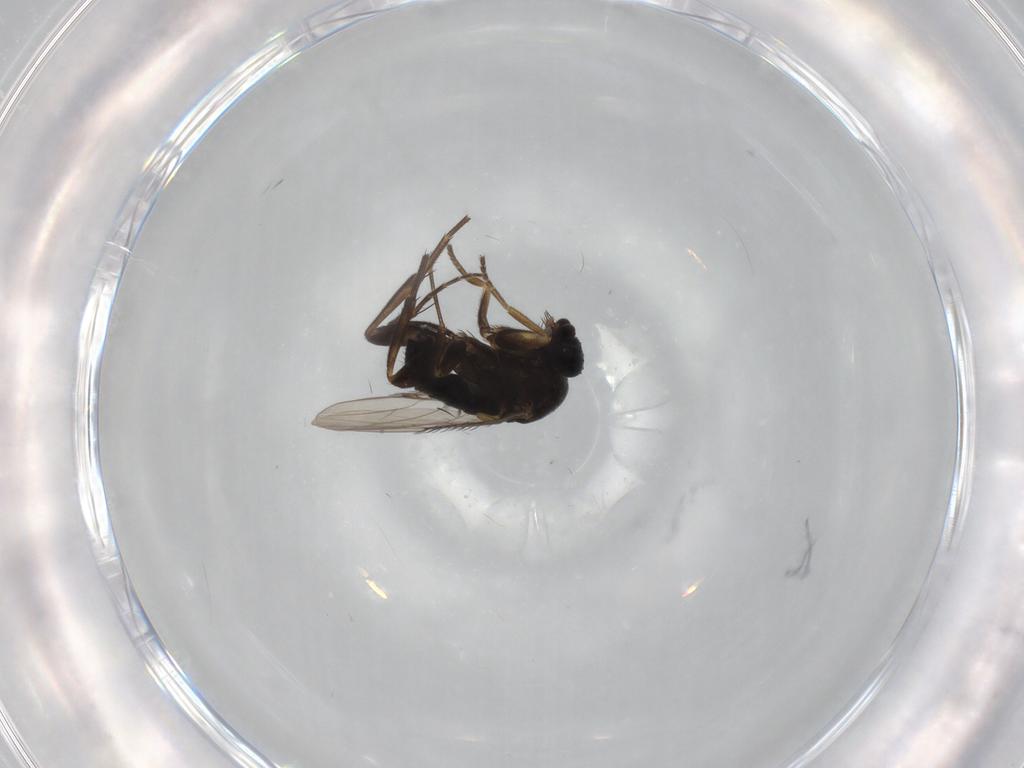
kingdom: Animalia
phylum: Arthropoda
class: Insecta
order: Diptera
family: Phoridae
